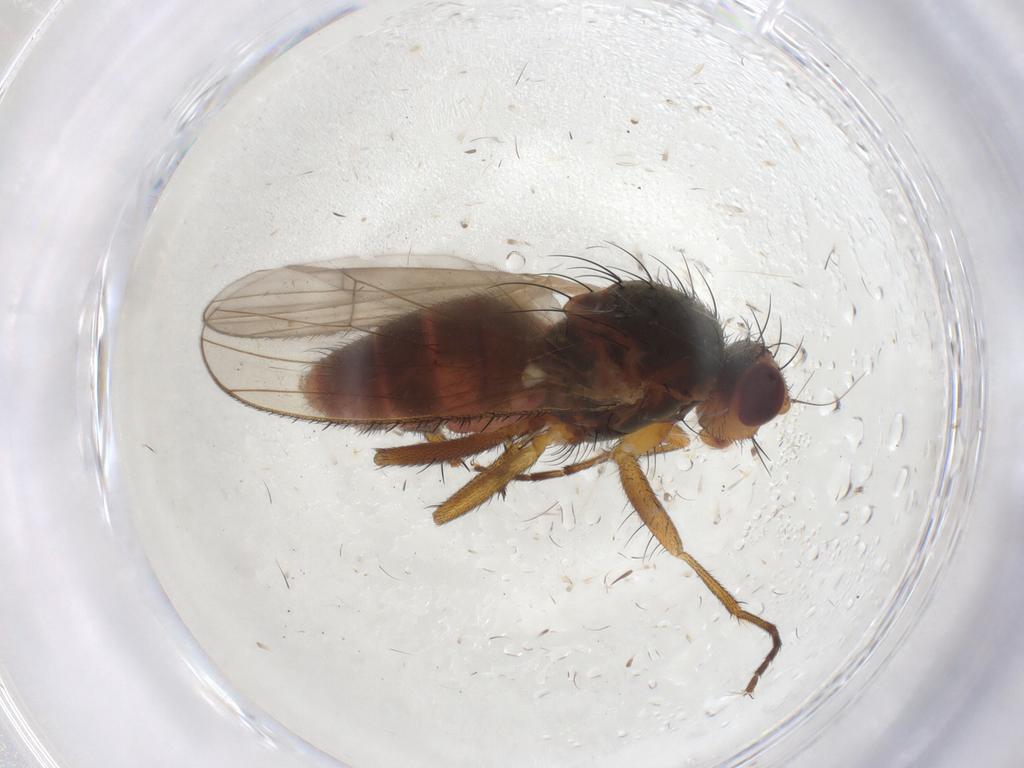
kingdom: Animalia
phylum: Arthropoda
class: Insecta
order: Diptera
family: Heleomyzidae
